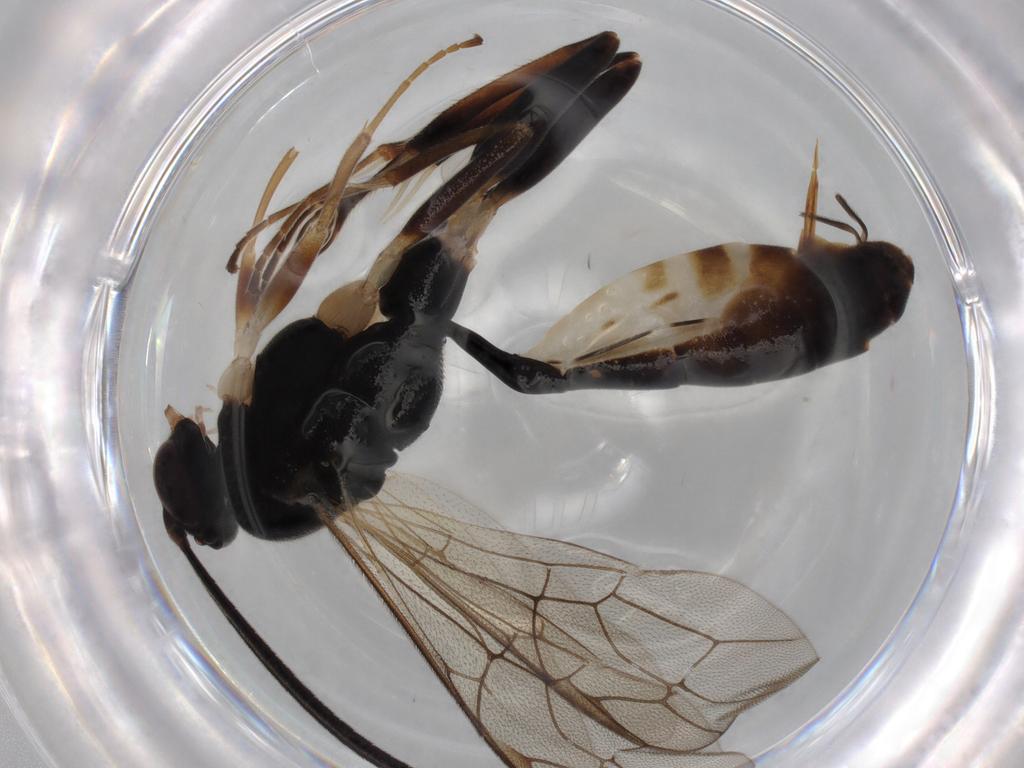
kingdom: Animalia
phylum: Arthropoda
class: Insecta
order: Hymenoptera
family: Ichneumonidae
